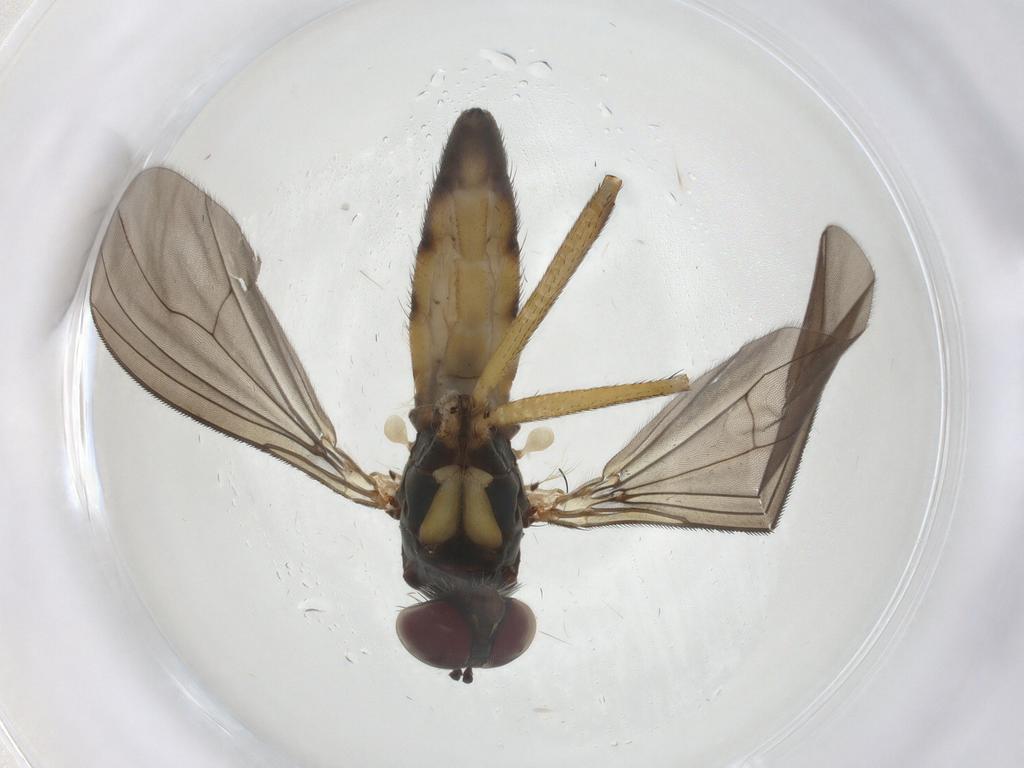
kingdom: Animalia
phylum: Arthropoda
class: Insecta
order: Diptera
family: Dolichopodidae
